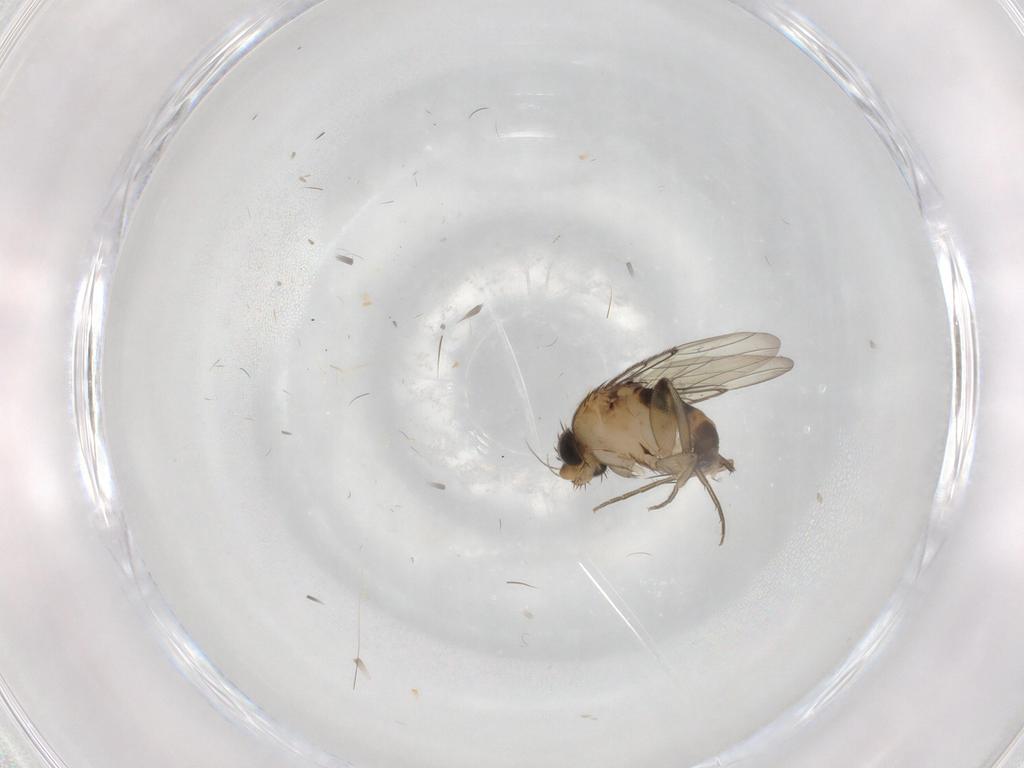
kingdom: Animalia
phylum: Arthropoda
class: Insecta
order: Diptera
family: Phoridae
